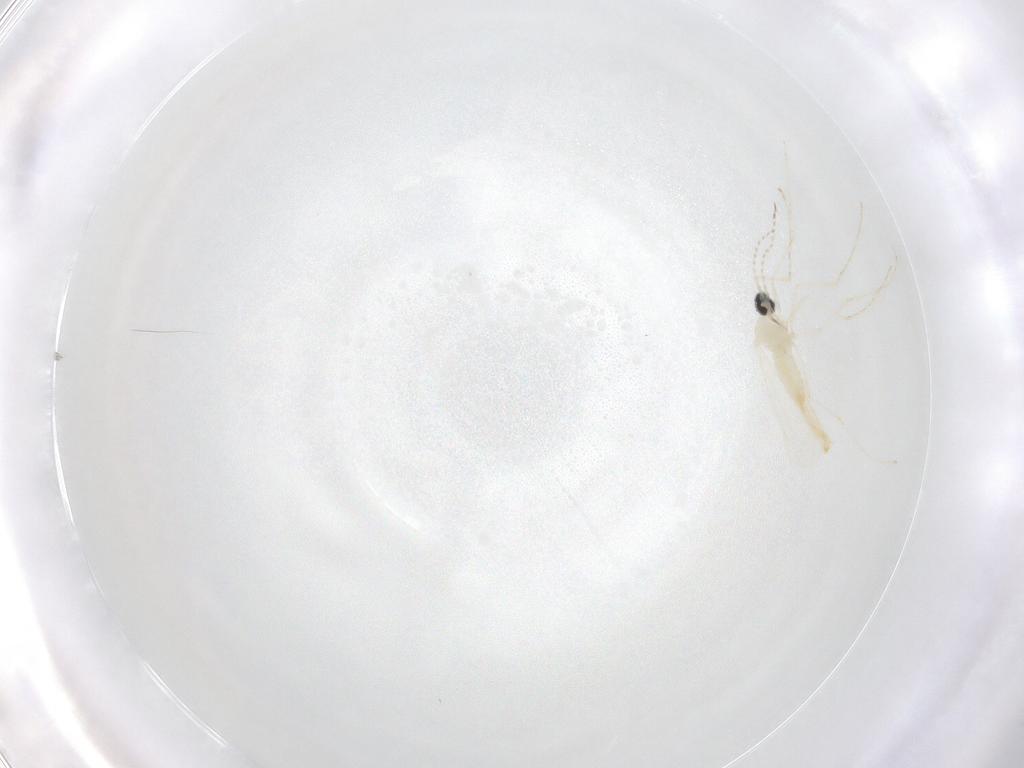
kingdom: Animalia
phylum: Arthropoda
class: Insecta
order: Diptera
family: Cecidomyiidae
